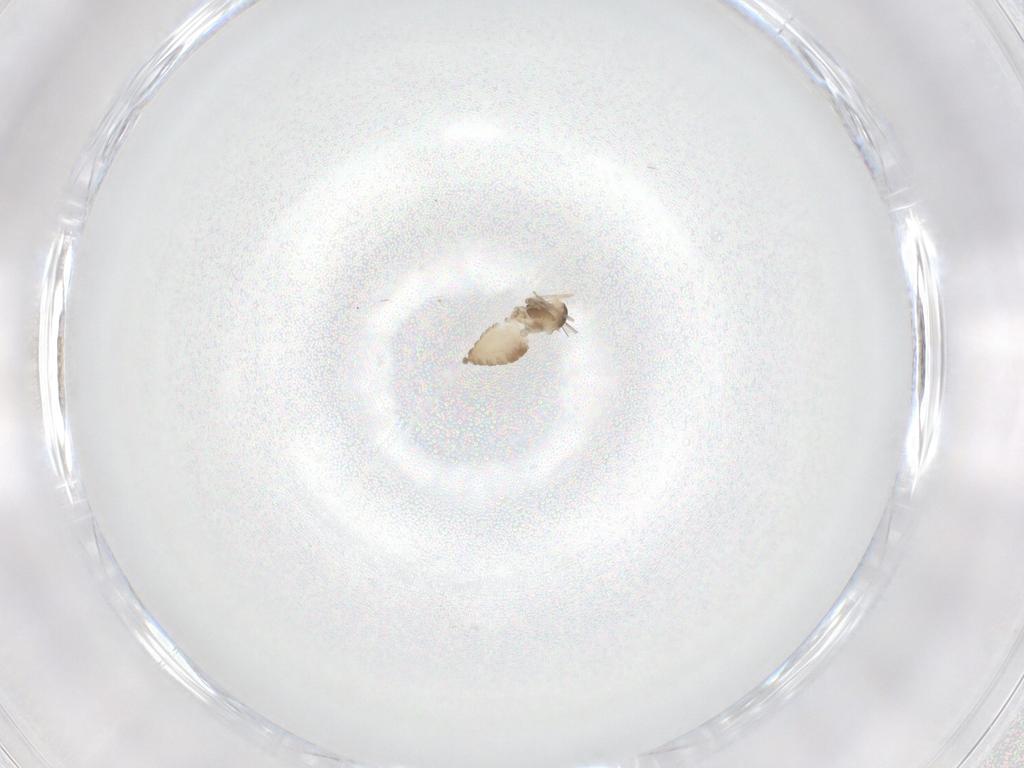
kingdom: Animalia
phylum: Arthropoda
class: Insecta
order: Diptera
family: Cecidomyiidae
